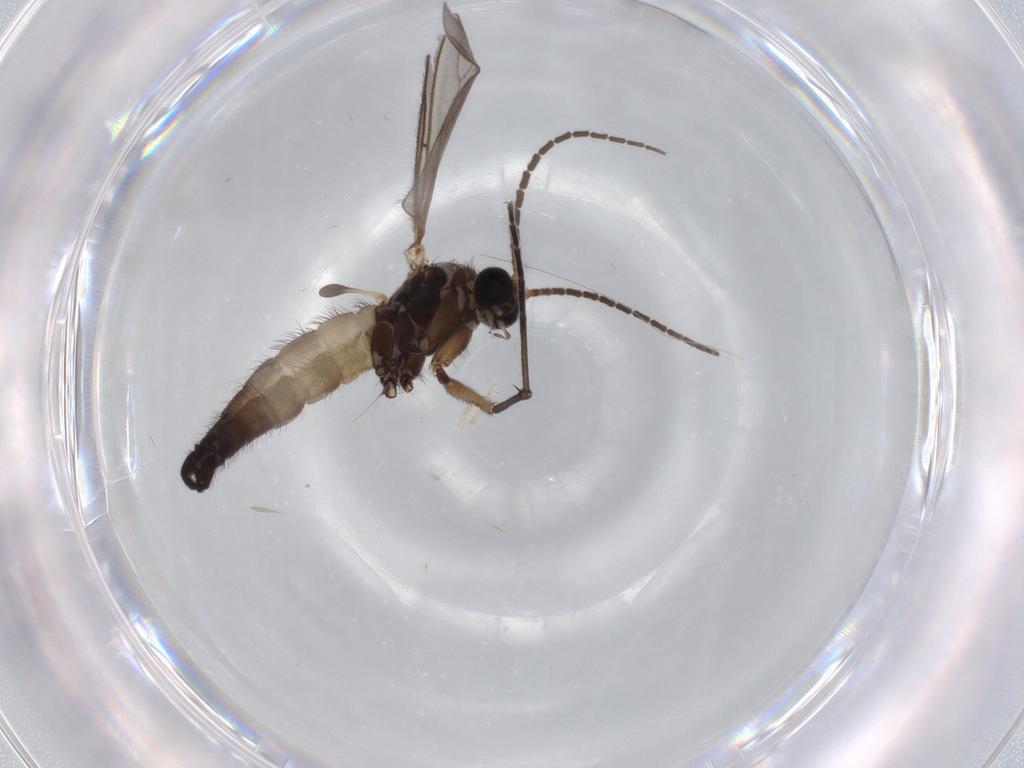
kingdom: Animalia
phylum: Arthropoda
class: Insecta
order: Diptera
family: Sciaridae
